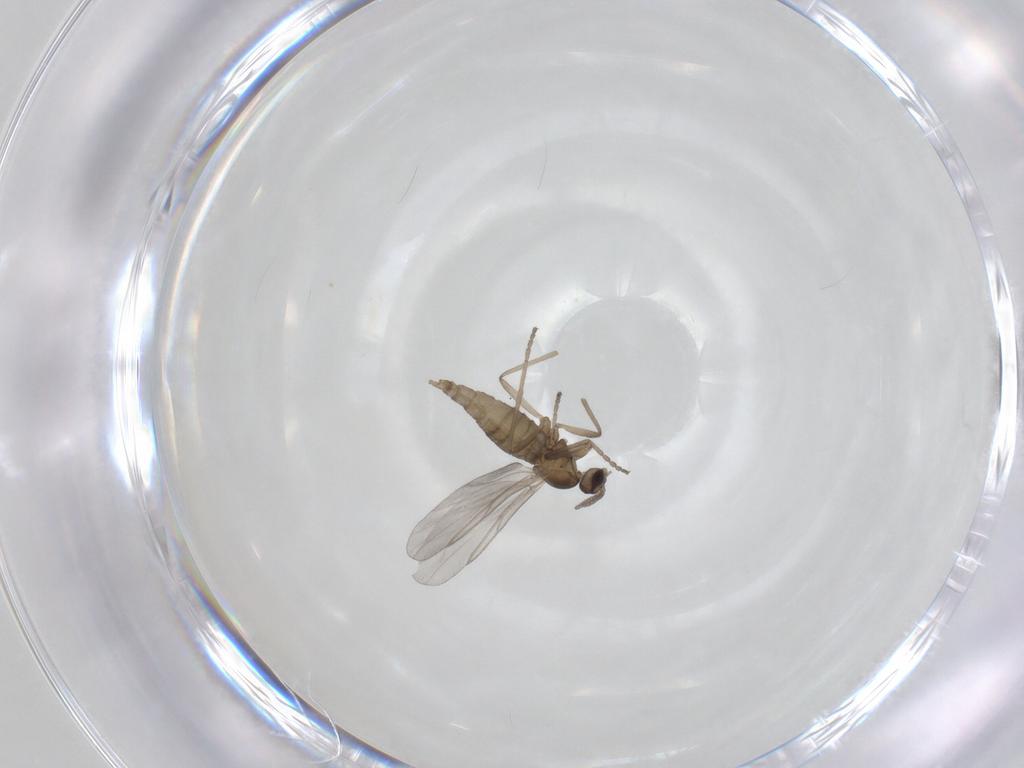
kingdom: Animalia
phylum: Arthropoda
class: Insecta
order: Diptera
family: Cecidomyiidae
